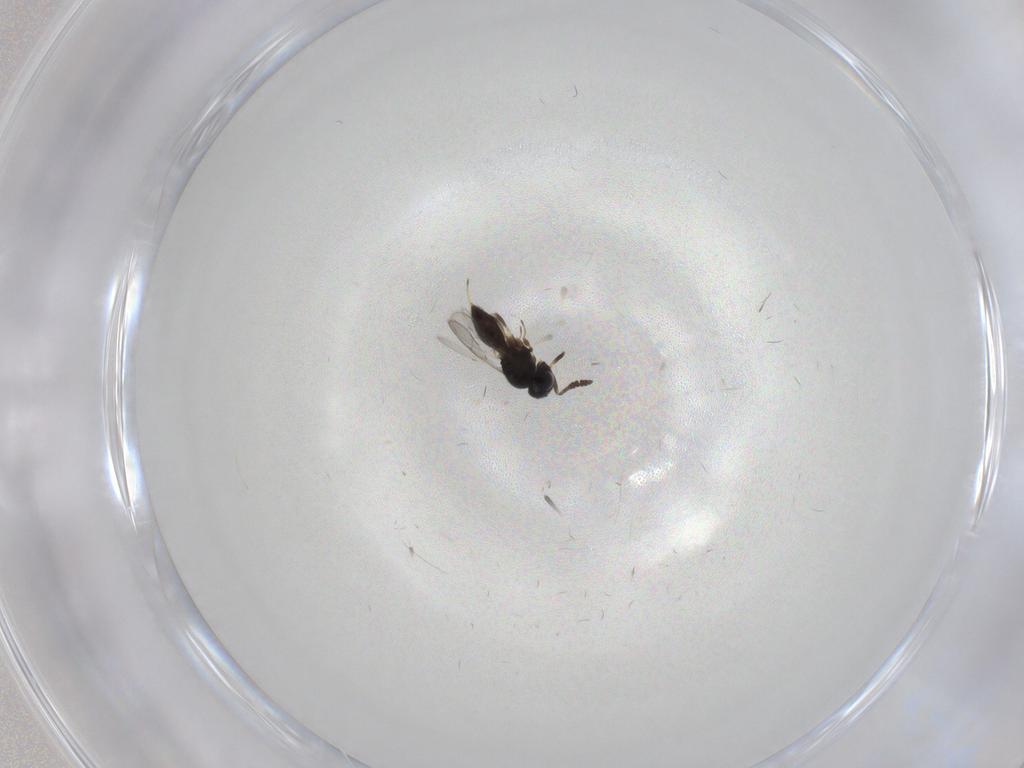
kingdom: Animalia
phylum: Arthropoda
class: Insecta
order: Hymenoptera
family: Scelionidae
